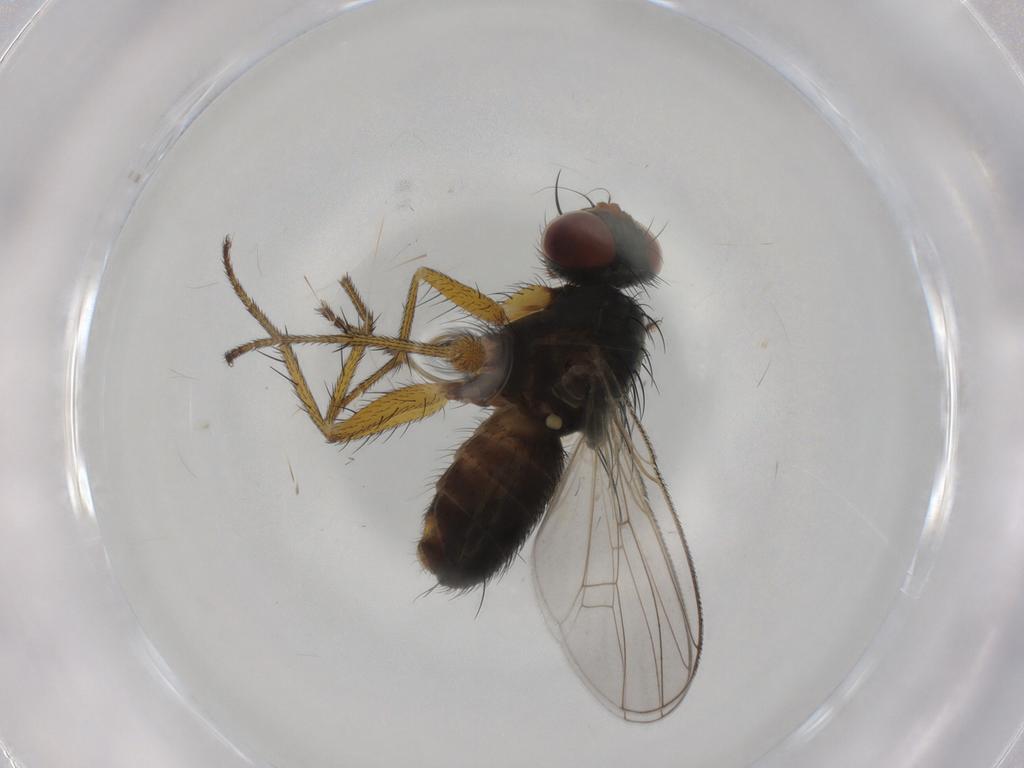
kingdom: Animalia
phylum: Arthropoda
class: Insecta
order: Diptera
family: Muscidae
